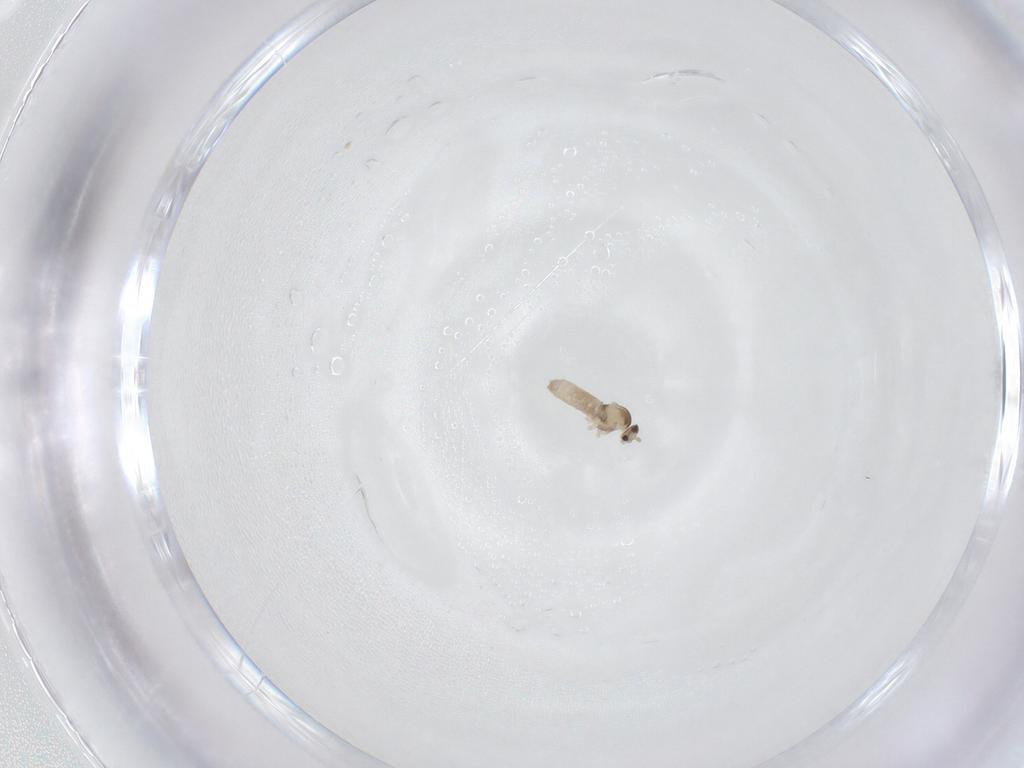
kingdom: Animalia
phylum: Arthropoda
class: Insecta
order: Diptera
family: Cecidomyiidae
